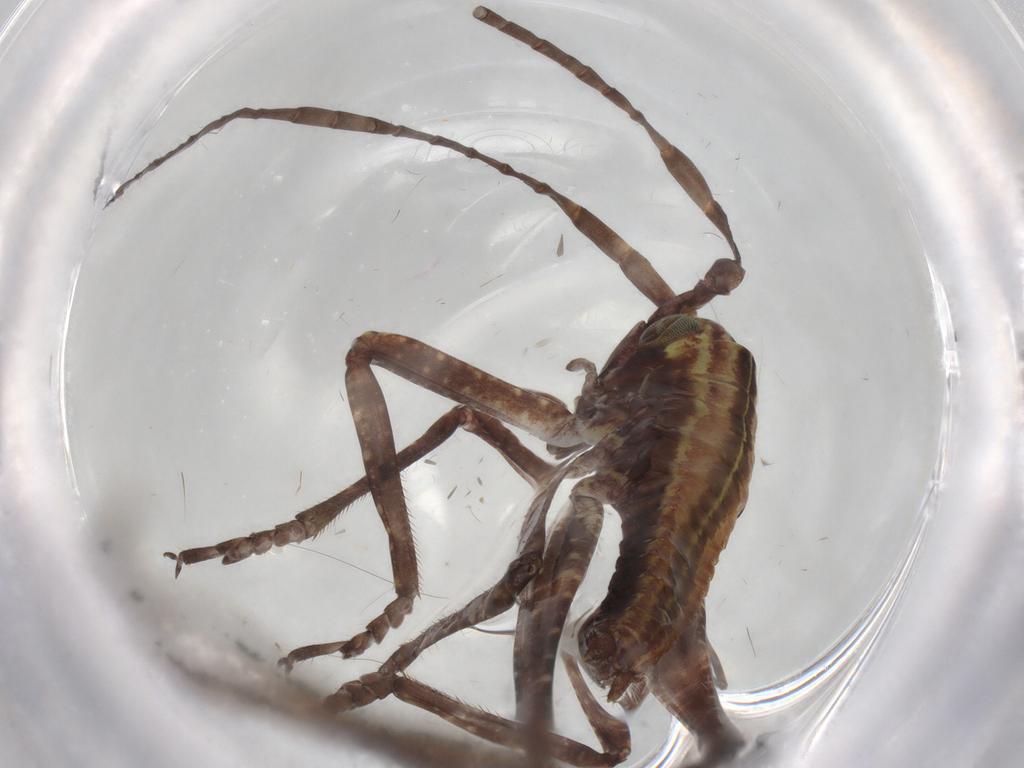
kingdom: Animalia
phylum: Arthropoda
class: Insecta
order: Orthoptera
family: Tettigoniidae
